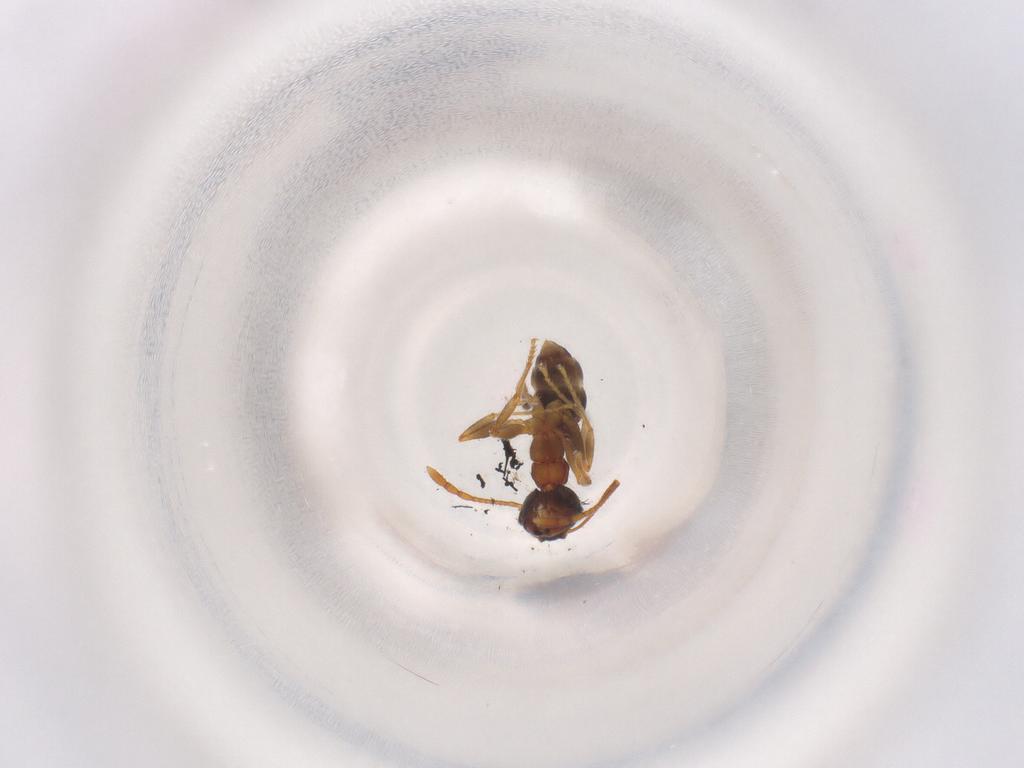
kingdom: Animalia
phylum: Arthropoda
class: Insecta
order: Hymenoptera
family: Formicidae
